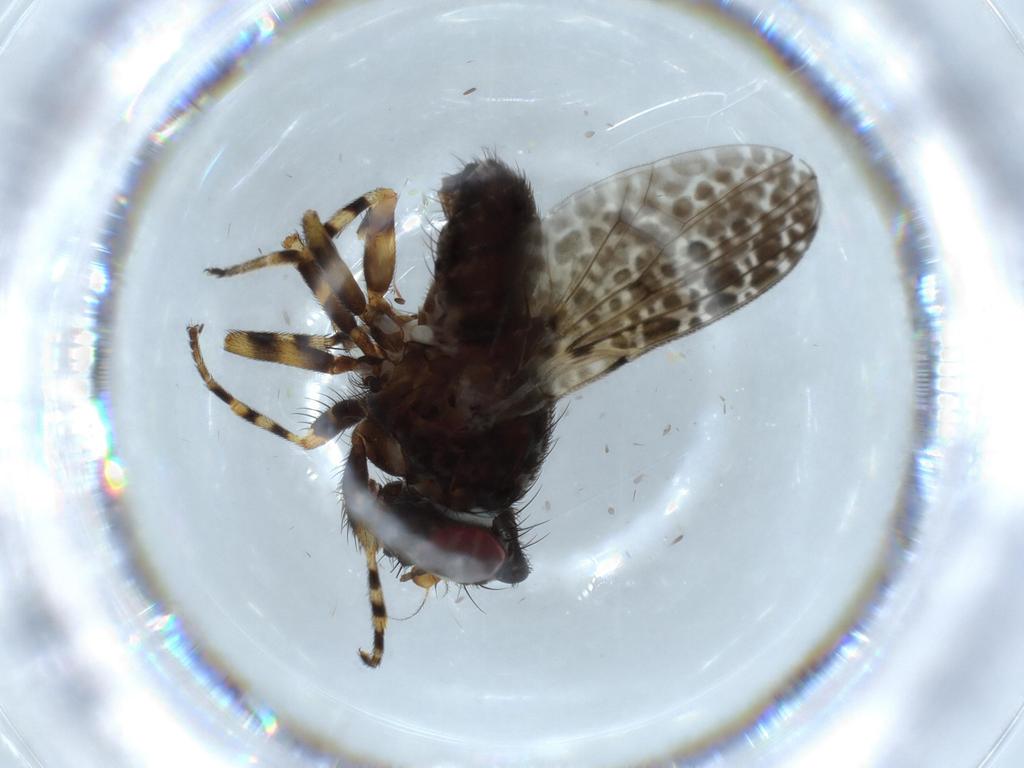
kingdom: Animalia
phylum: Arthropoda
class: Insecta
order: Diptera
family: Odiniidae
